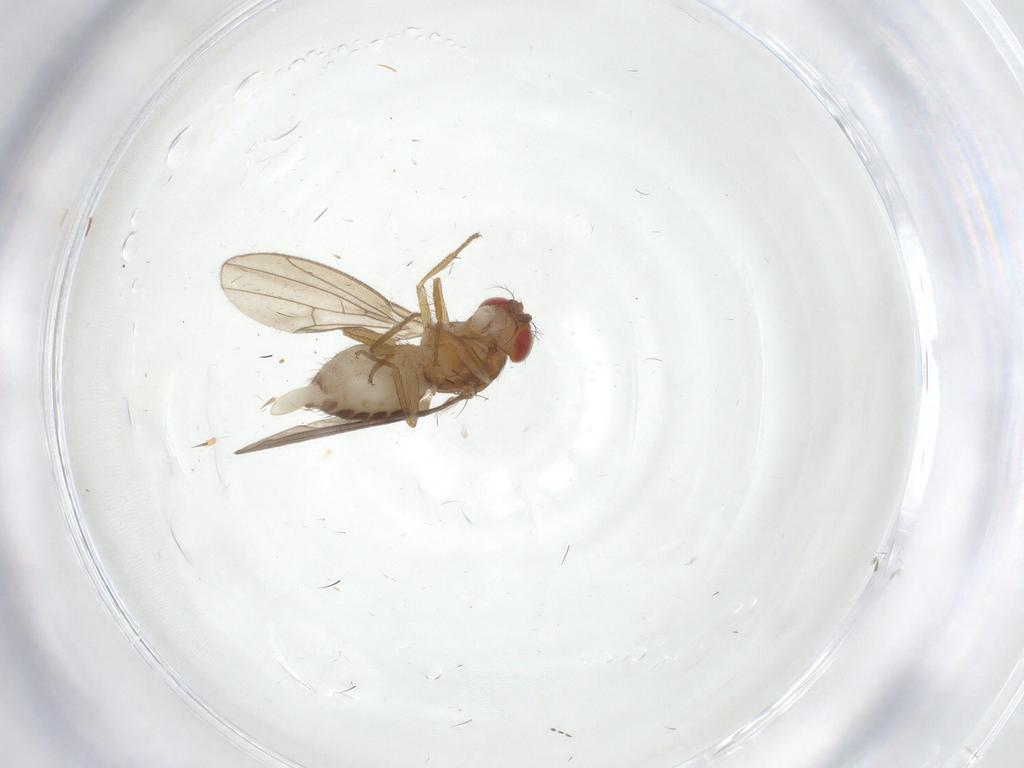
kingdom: Animalia
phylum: Arthropoda
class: Insecta
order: Diptera
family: Drosophilidae
